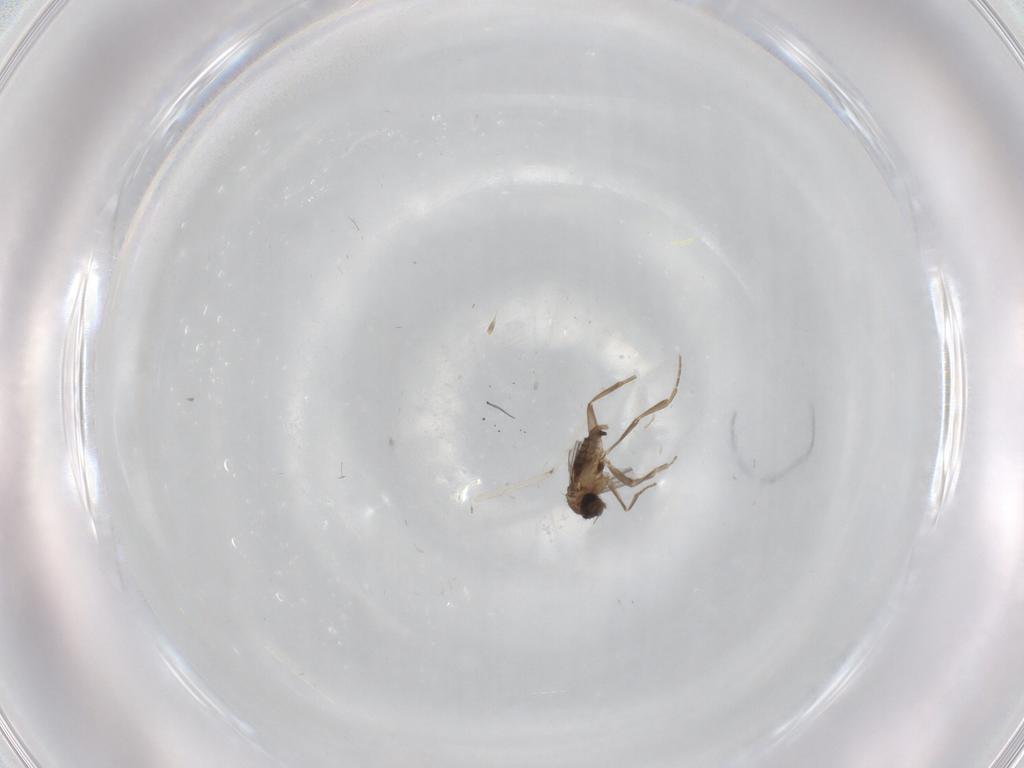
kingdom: Animalia
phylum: Arthropoda
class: Insecta
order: Diptera
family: Cecidomyiidae
